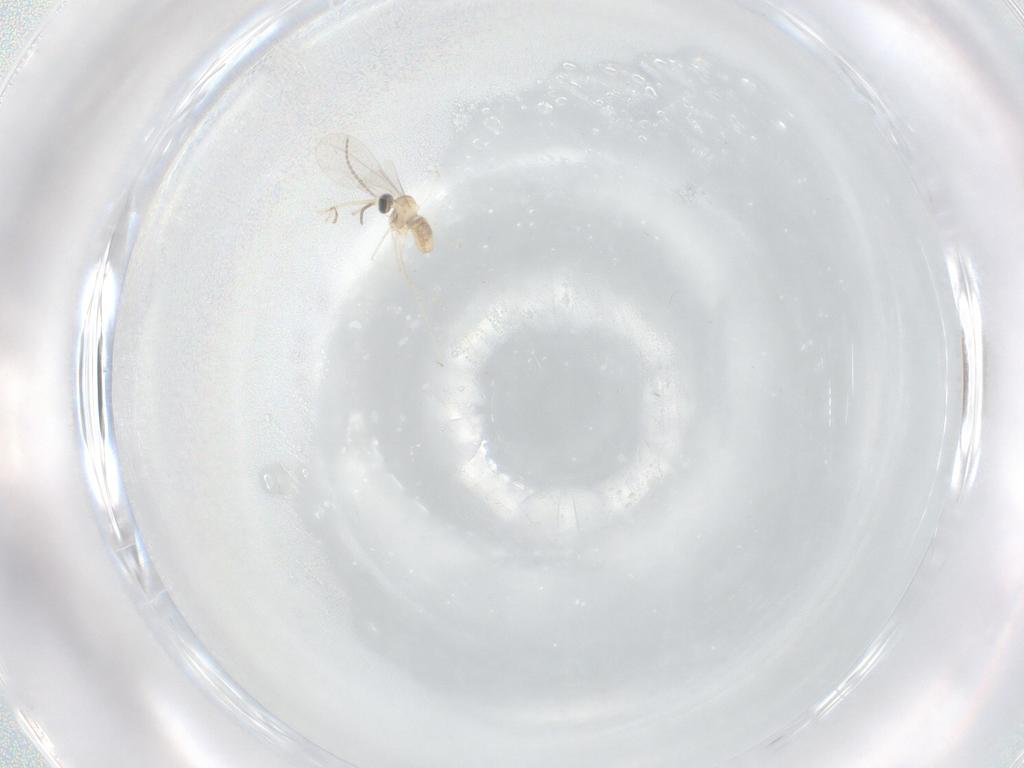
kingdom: Animalia
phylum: Arthropoda
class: Insecta
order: Diptera
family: Chironomidae
